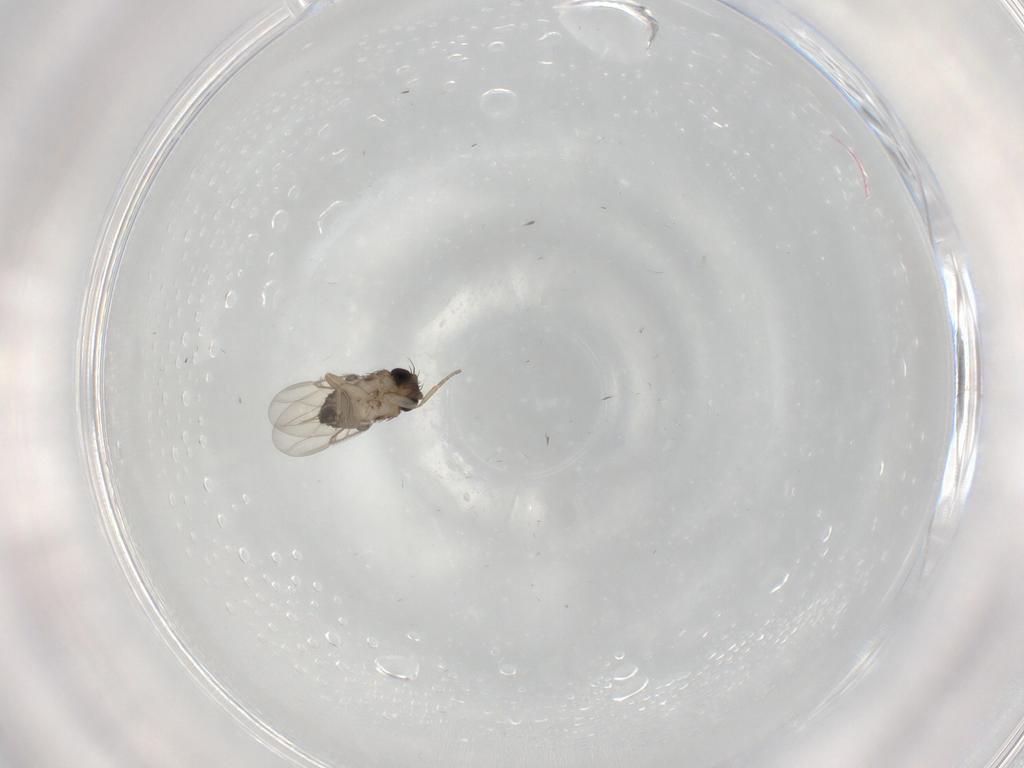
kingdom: Animalia
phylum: Arthropoda
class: Insecta
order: Diptera
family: Phoridae
